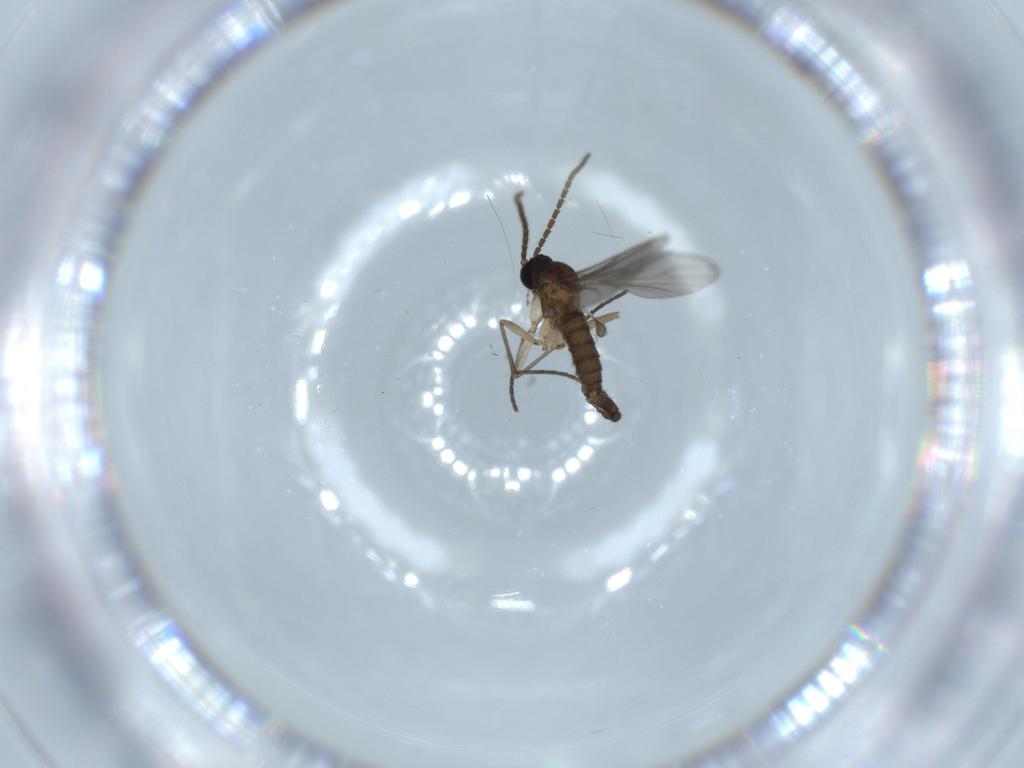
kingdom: Animalia
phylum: Arthropoda
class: Insecta
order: Diptera
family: Sciaridae
